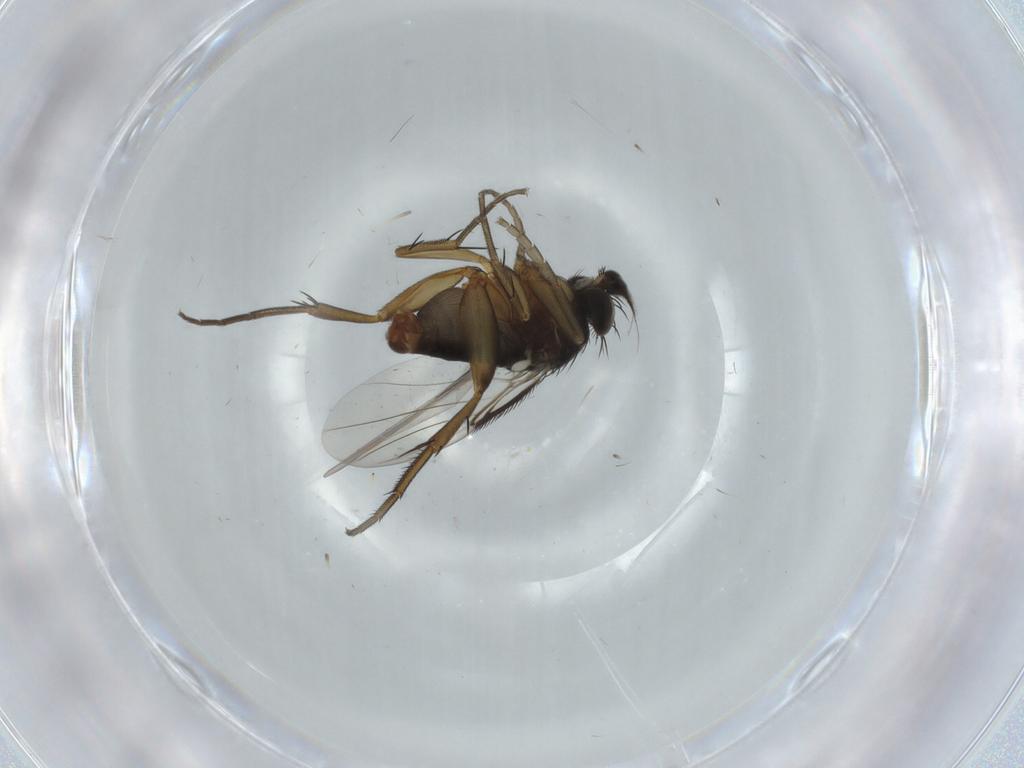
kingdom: Animalia
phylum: Arthropoda
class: Insecta
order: Diptera
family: Phoridae
